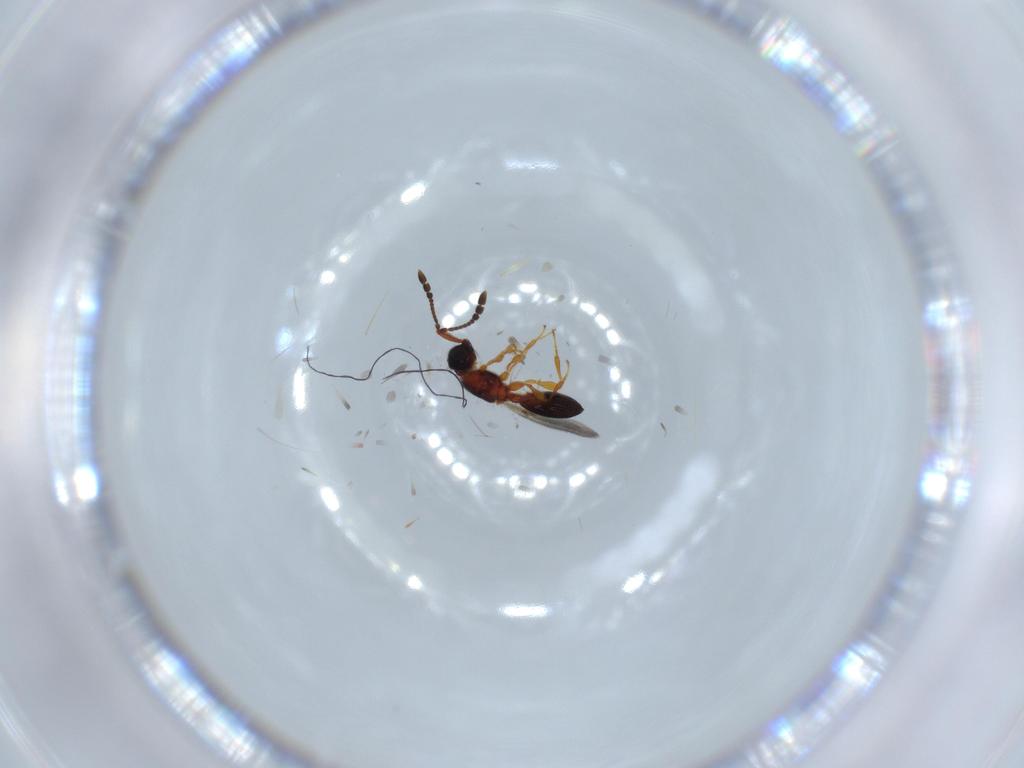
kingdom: Animalia
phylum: Arthropoda
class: Insecta
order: Hymenoptera
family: Diapriidae
